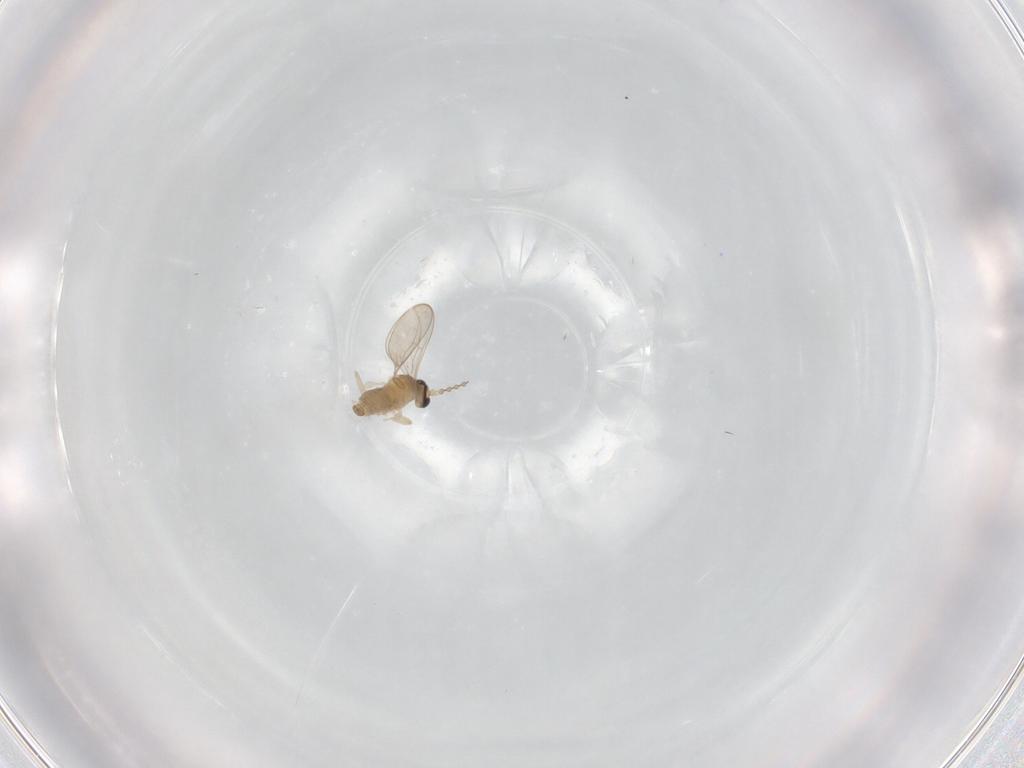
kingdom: Animalia
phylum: Arthropoda
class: Insecta
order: Diptera
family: Cecidomyiidae
